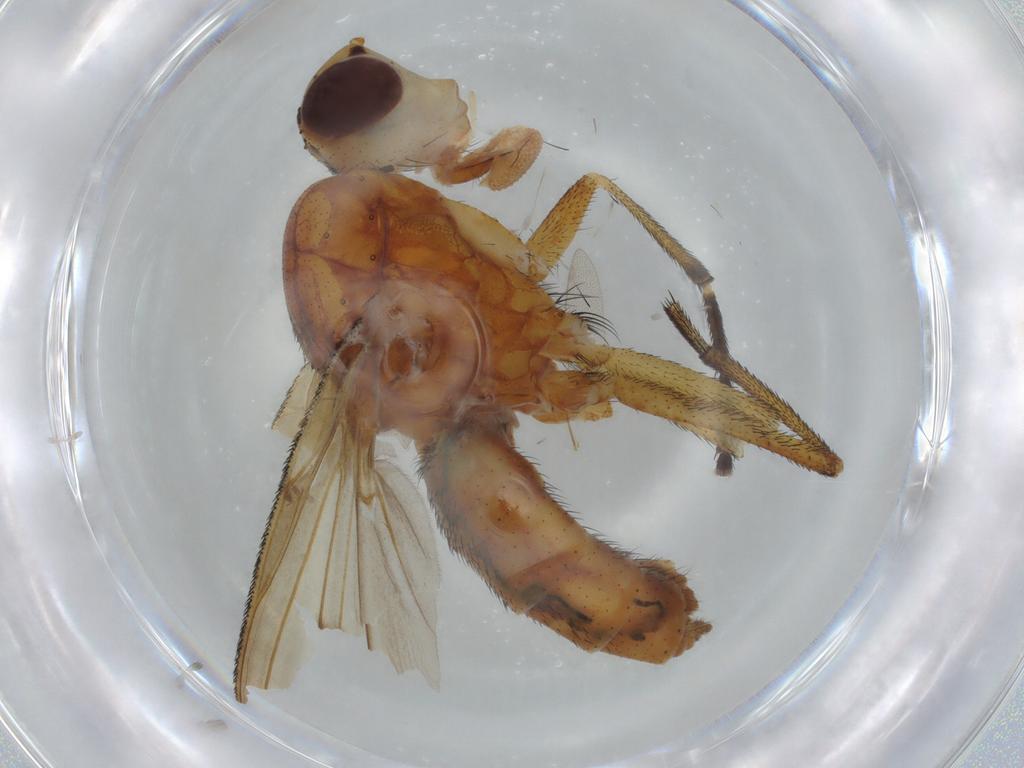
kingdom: Animalia
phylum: Arthropoda
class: Insecta
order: Diptera
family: Sciomyzidae
